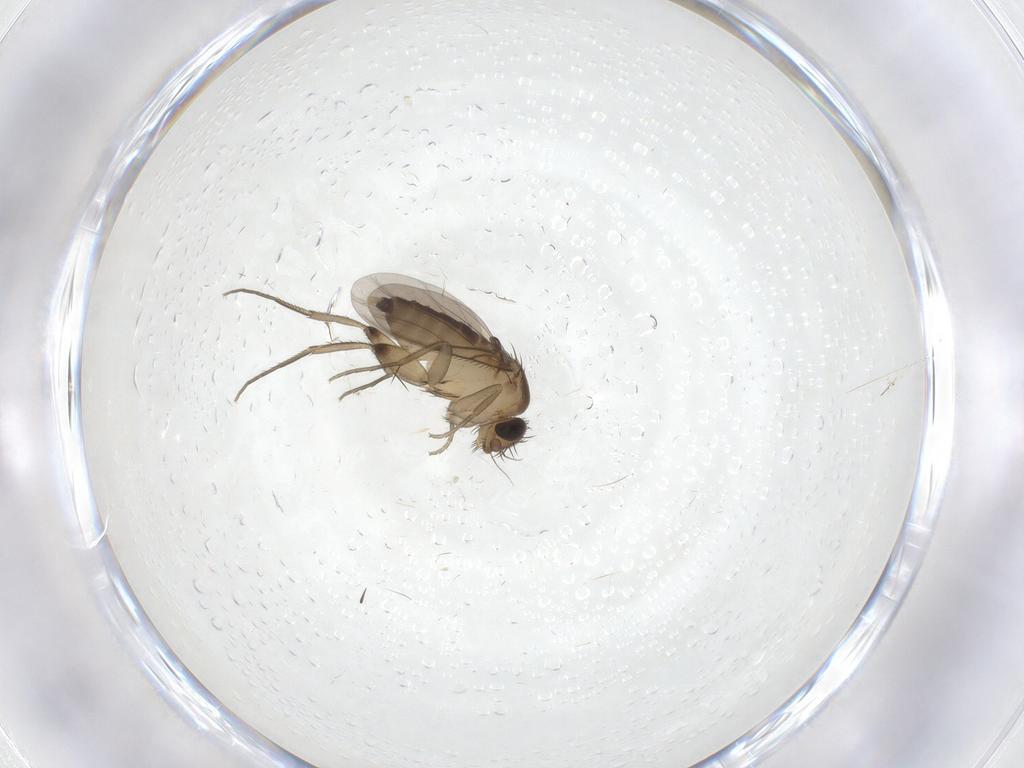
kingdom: Animalia
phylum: Arthropoda
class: Insecta
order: Diptera
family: Phoridae
